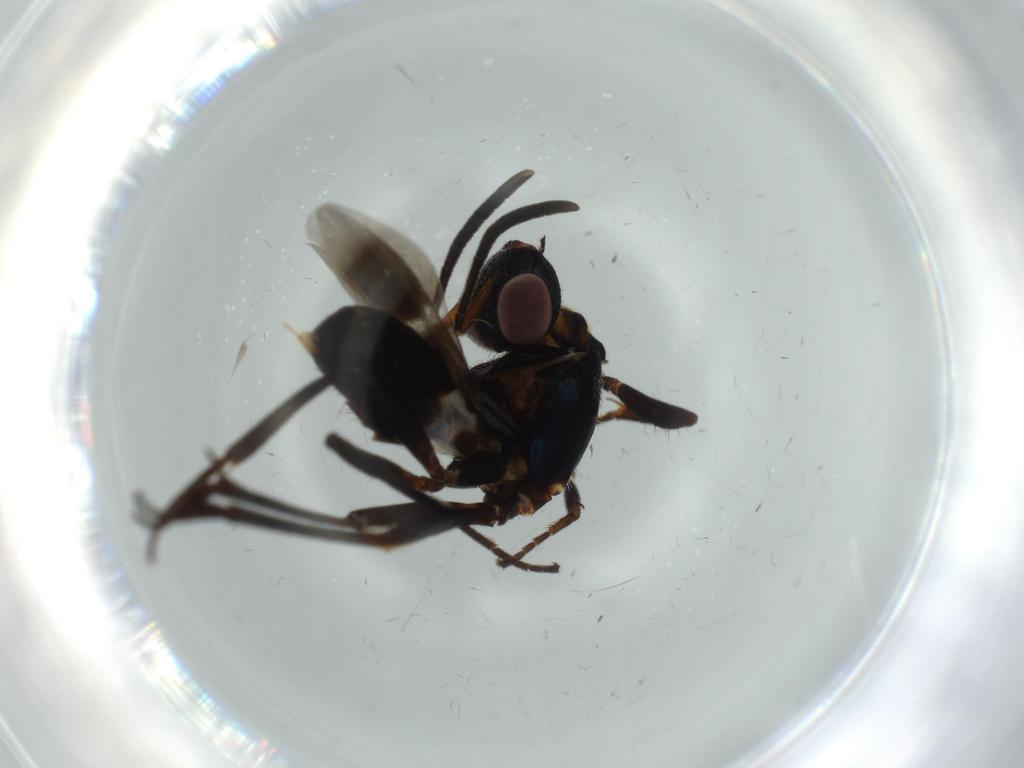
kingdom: Animalia
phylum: Arthropoda
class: Insecta
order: Hymenoptera
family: Eupelmidae
